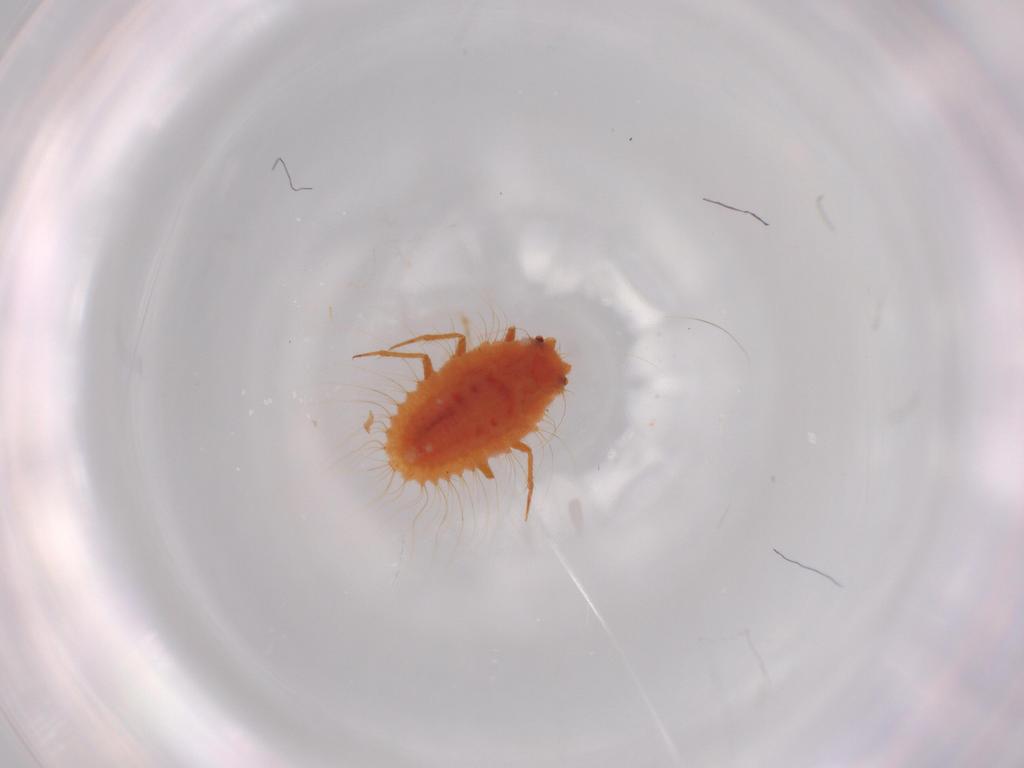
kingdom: Animalia
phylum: Arthropoda
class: Insecta
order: Hemiptera
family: Coccoidea_incertae_sedis
